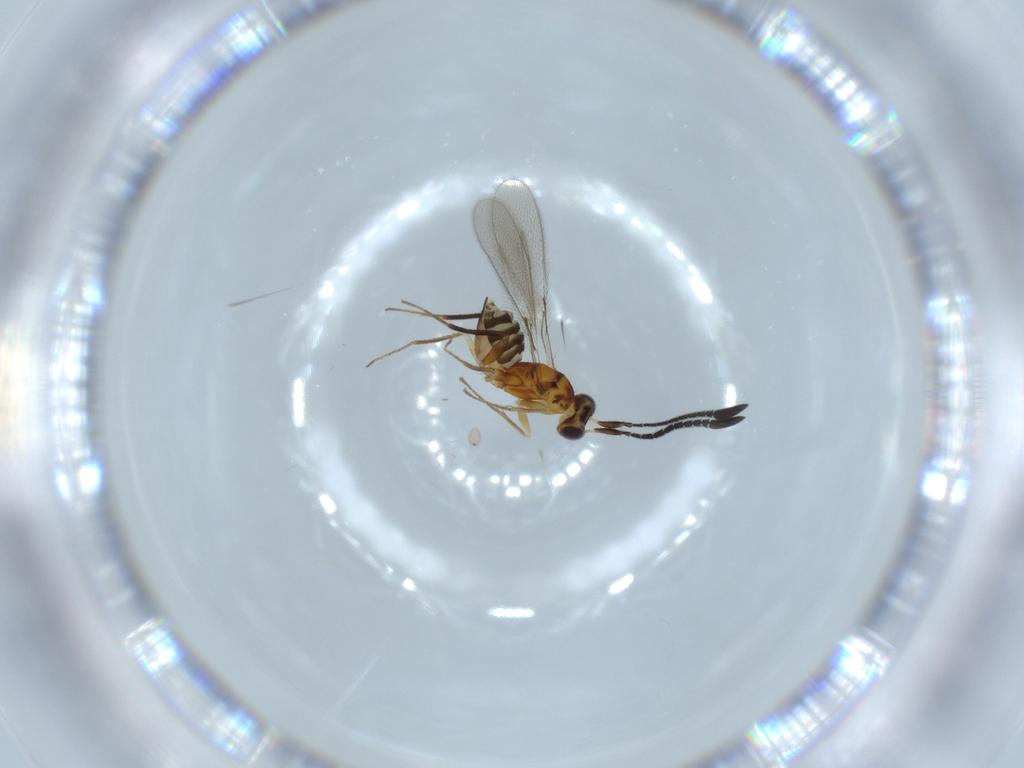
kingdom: Animalia
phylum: Arthropoda
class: Insecta
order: Hymenoptera
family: Mymaridae
